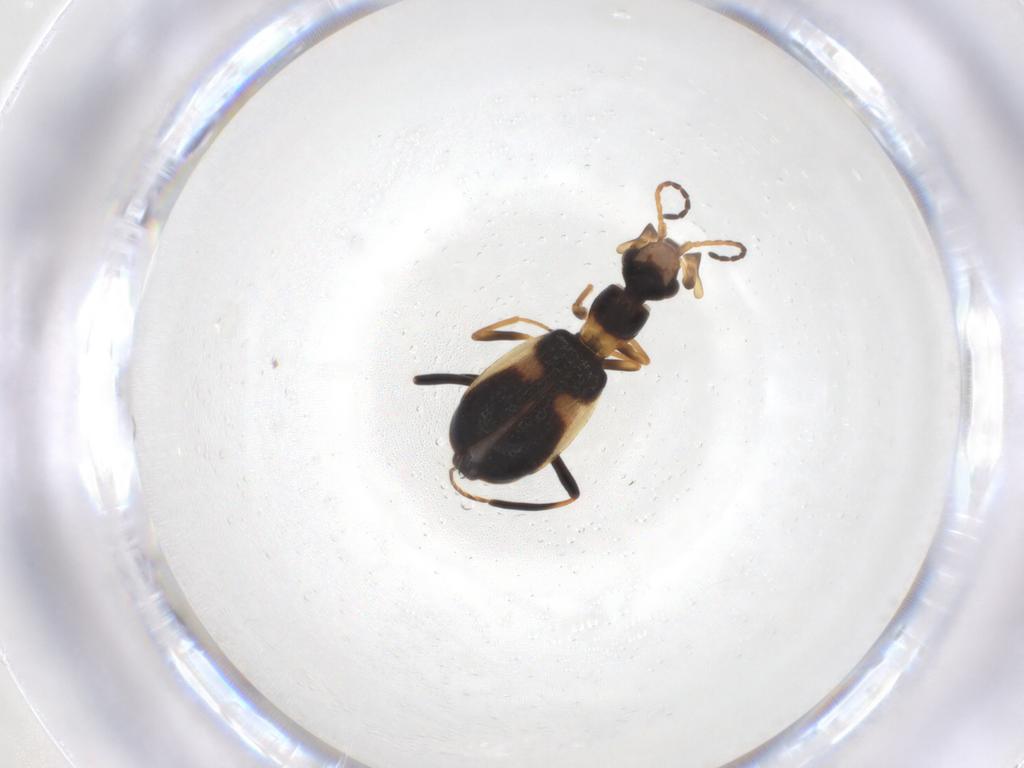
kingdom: Animalia
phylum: Arthropoda
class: Insecta
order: Coleoptera
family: Melyridae
